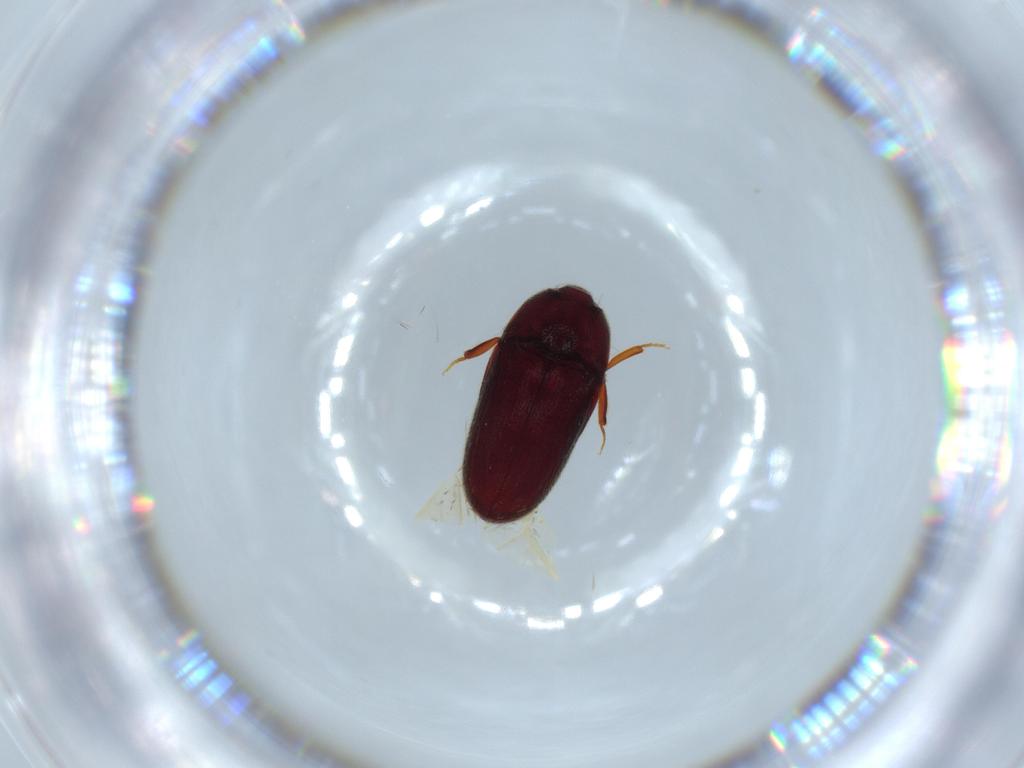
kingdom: Animalia
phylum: Arthropoda
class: Insecta
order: Coleoptera
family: Throscidae
